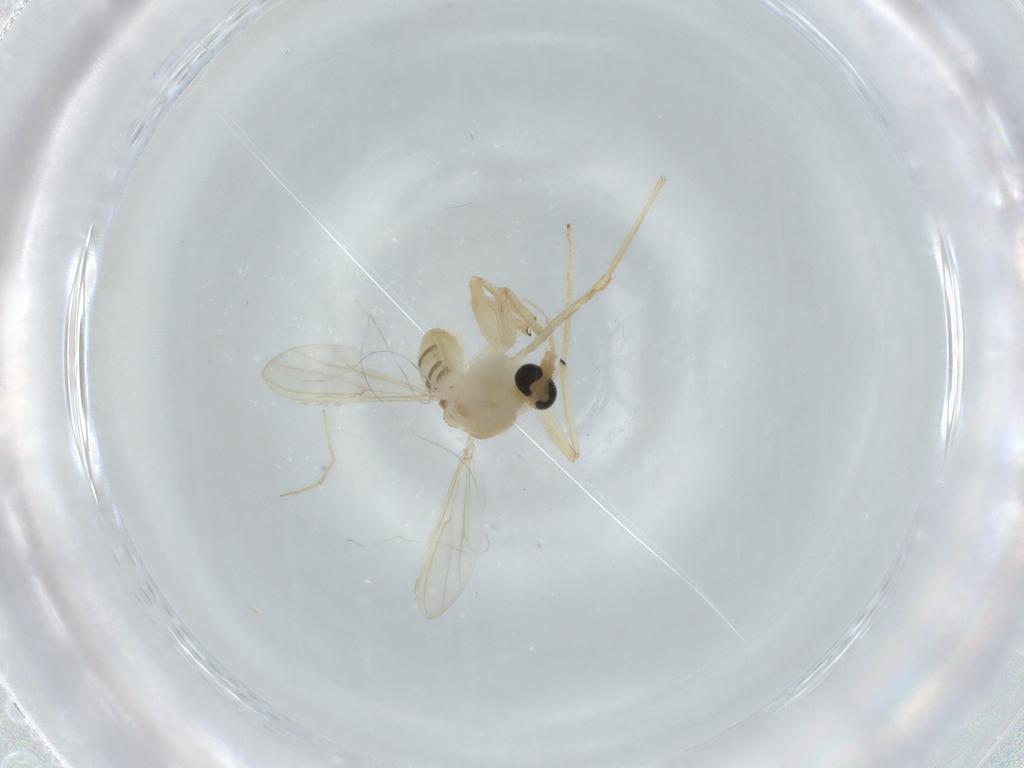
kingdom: Animalia
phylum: Arthropoda
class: Insecta
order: Diptera
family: Chironomidae
